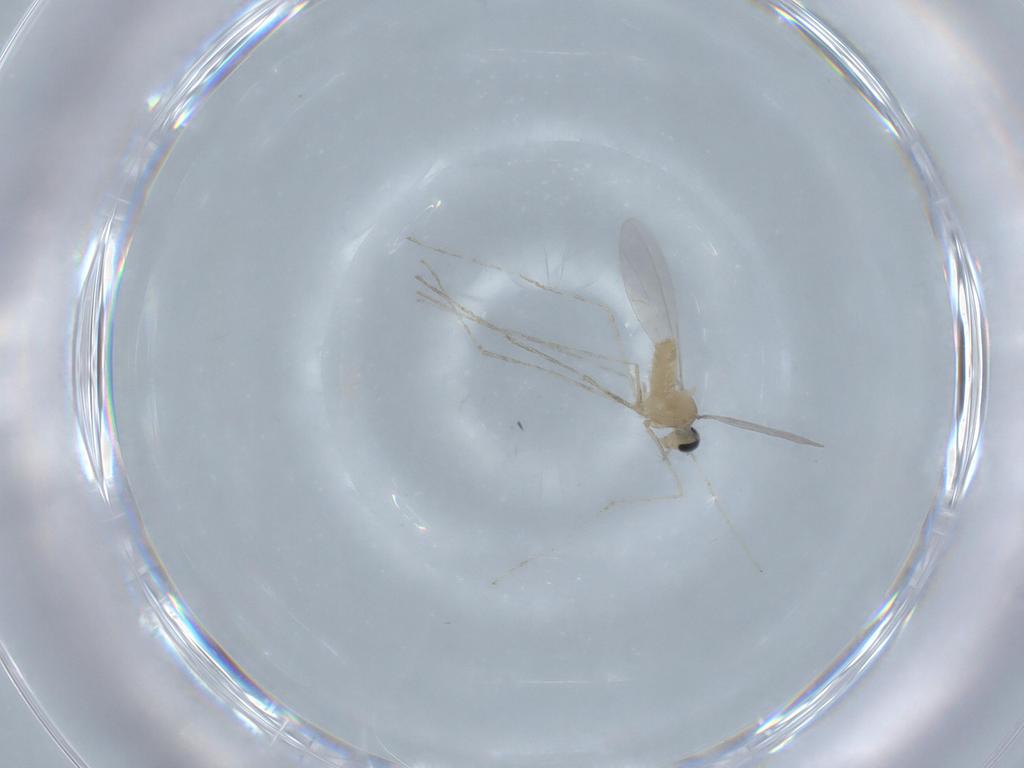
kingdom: Animalia
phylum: Arthropoda
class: Insecta
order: Diptera
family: Cecidomyiidae
